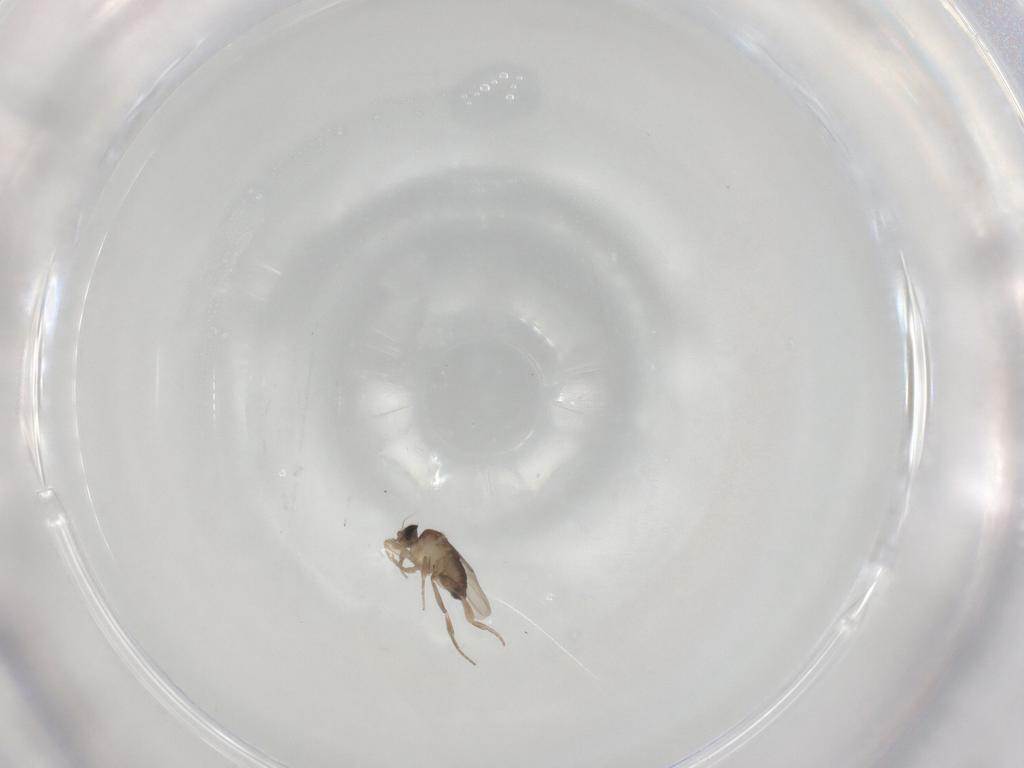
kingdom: Animalia
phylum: Arthropoda
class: Insecta
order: Diptera
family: Phoridae
